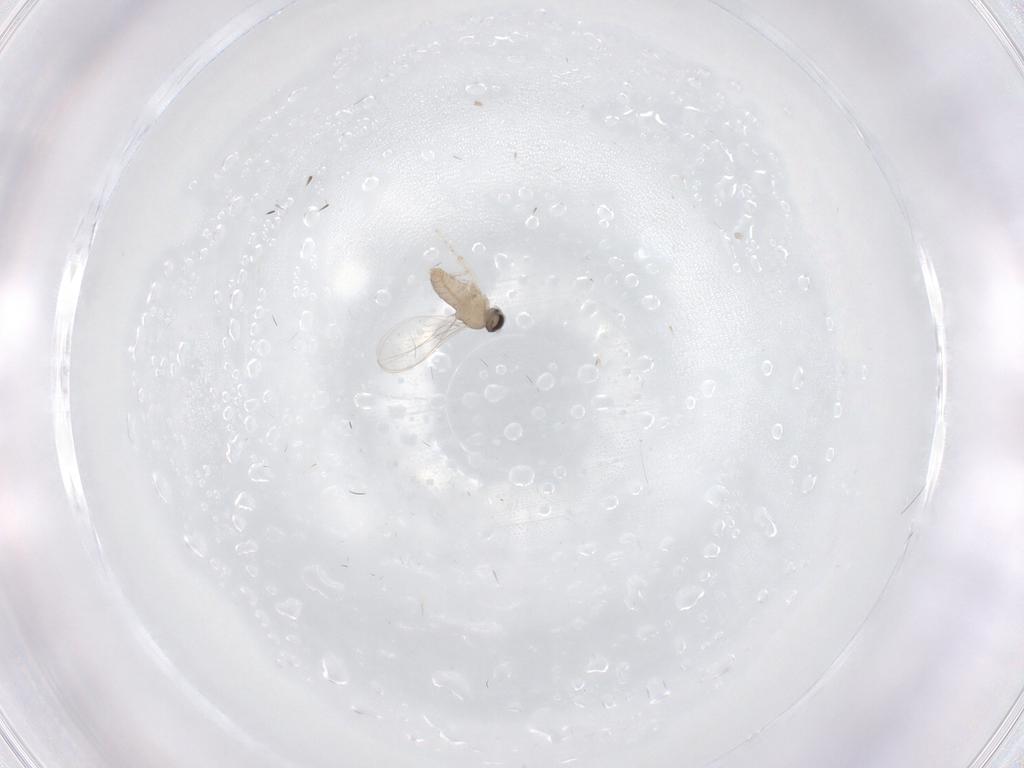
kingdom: Animalia
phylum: Arthropoda
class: Insecta
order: Diptera
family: Cecidomyiidae
